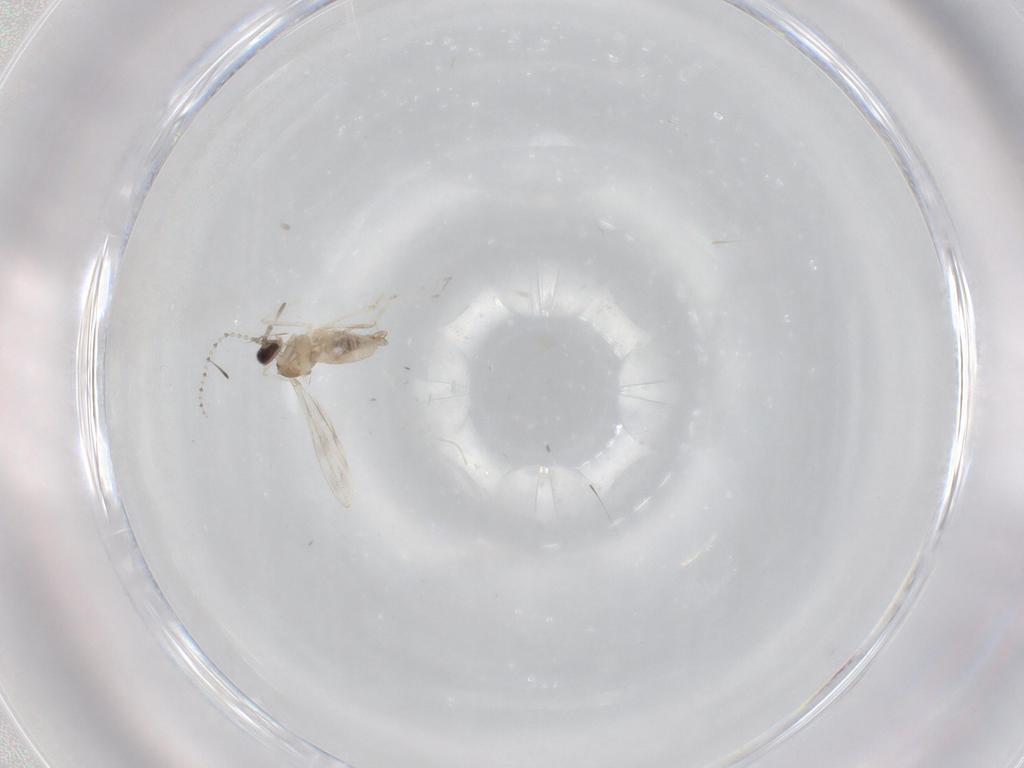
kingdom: Animalia
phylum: Arthropoda
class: Insecta
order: Diptera
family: Cecidomyiidae
